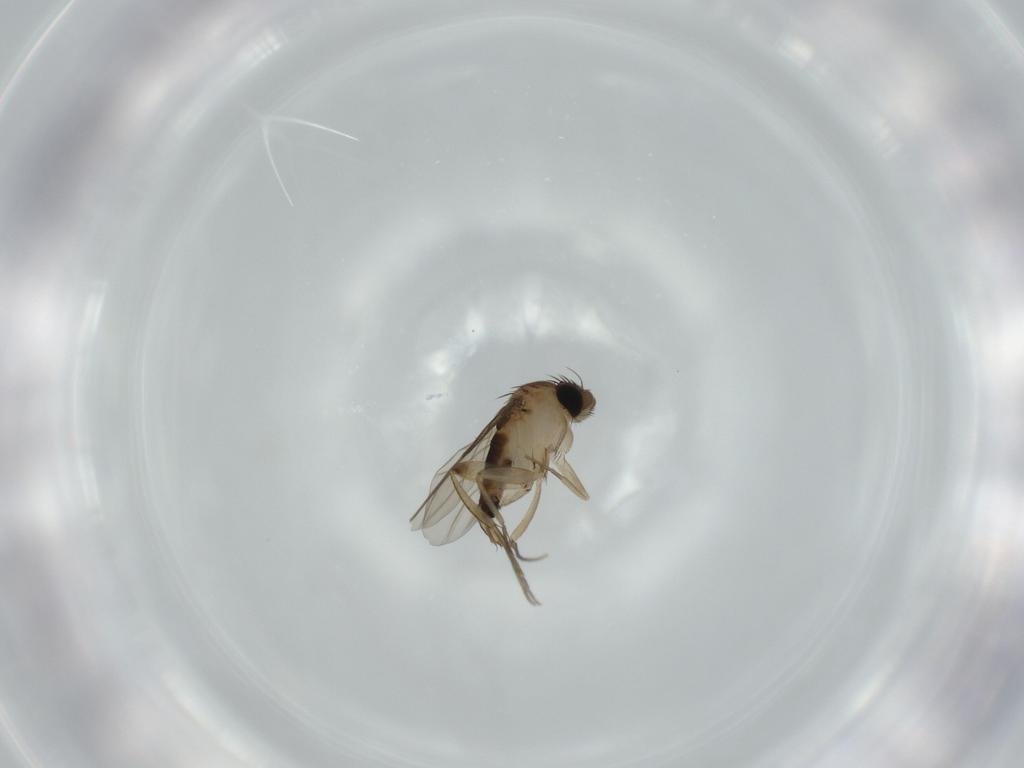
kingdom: Animalia
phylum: Arthropoda
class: Insecta
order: Diptera
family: Phoridae
